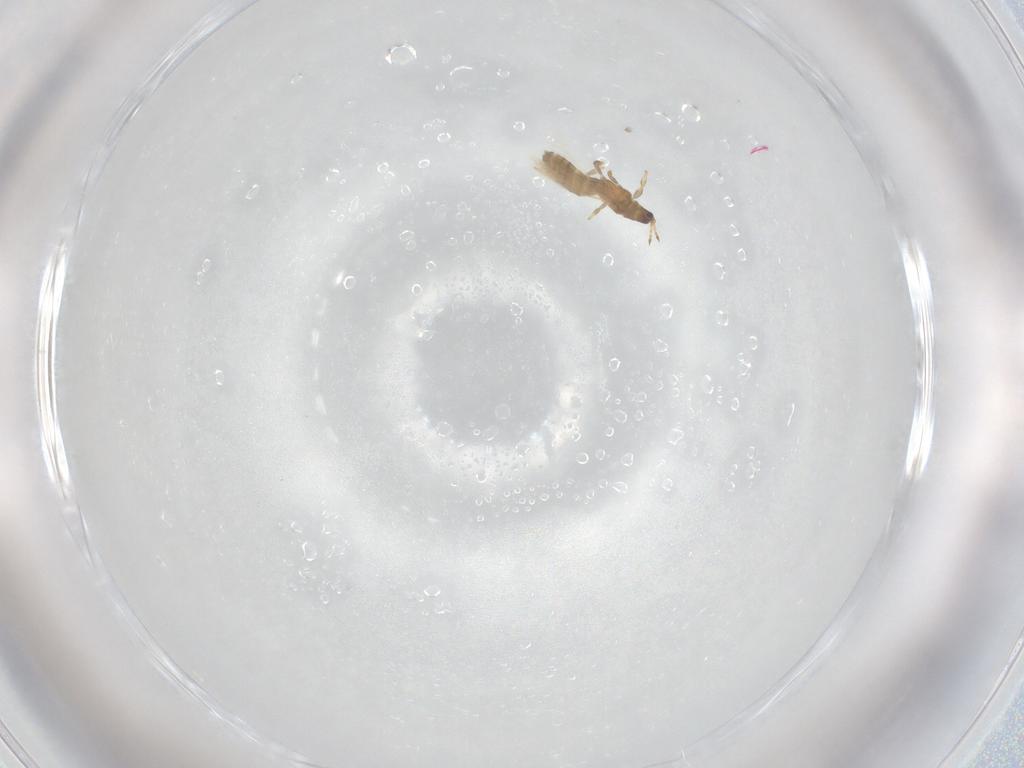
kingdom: Animalia
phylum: Arthropoda
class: Insecta
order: Thysanoptera
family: Thripidae
